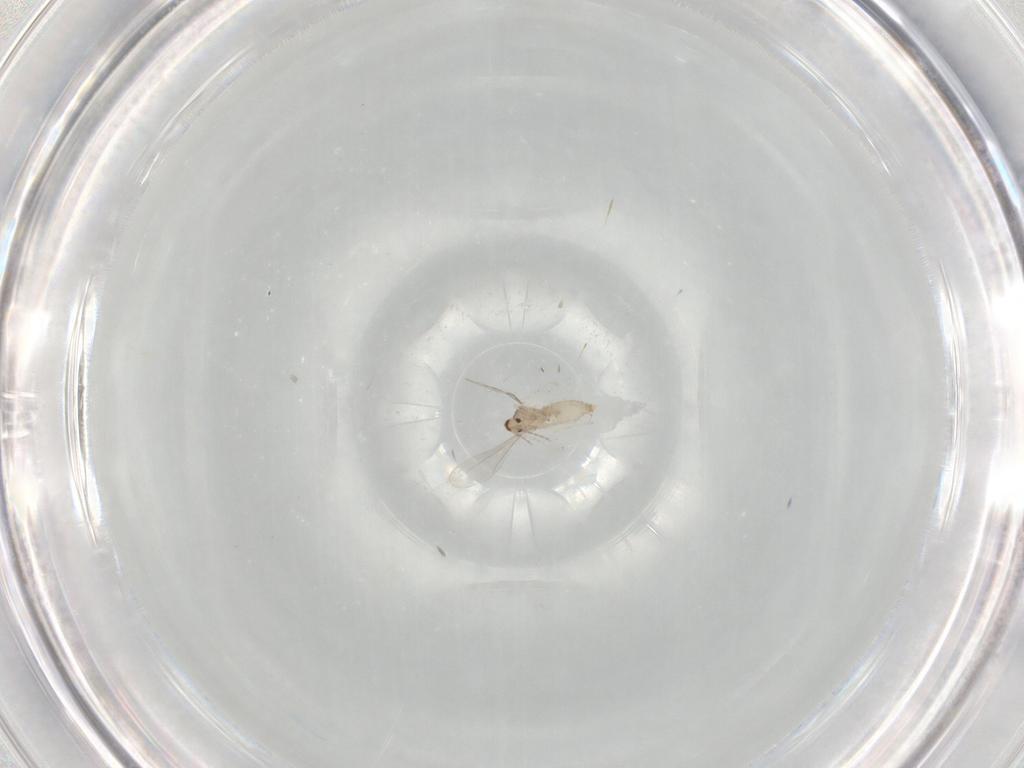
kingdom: Animalia
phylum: Arthropoda
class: Insecta
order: Diptera
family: Cecidomyiidae
